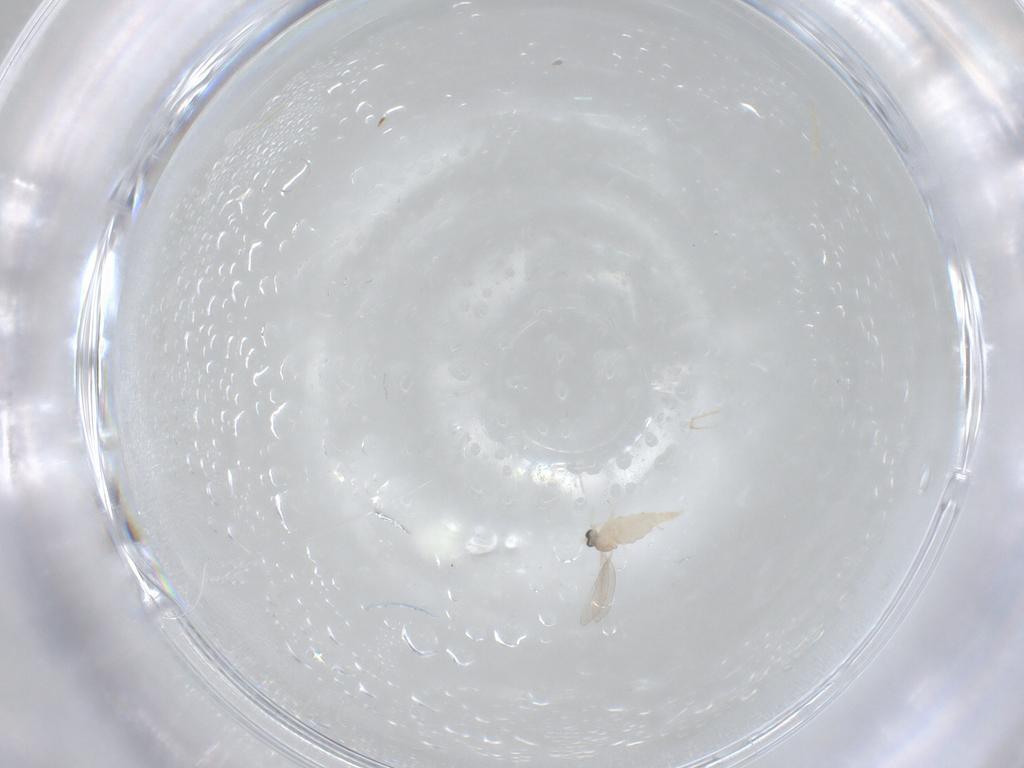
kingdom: Animalia
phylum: Arthropoda
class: Insecta
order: Diptera
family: Cecidomyiidae
